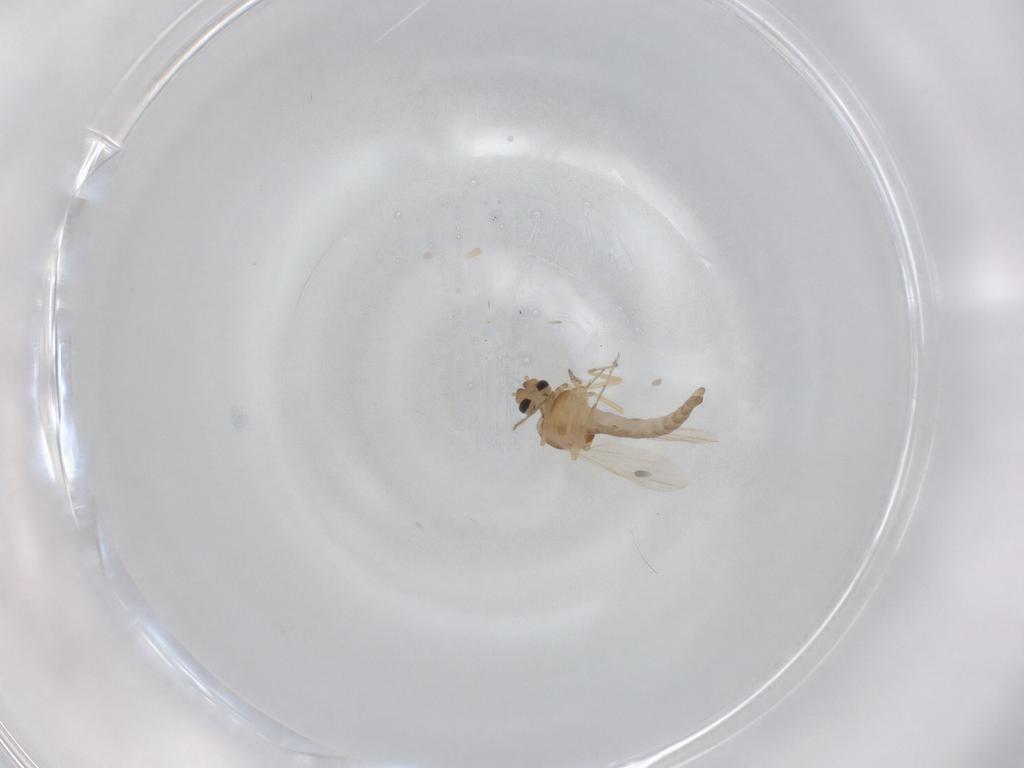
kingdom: Animalia
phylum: Arthropoda
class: Insecta
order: Diptera
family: Ceratopogonidae
